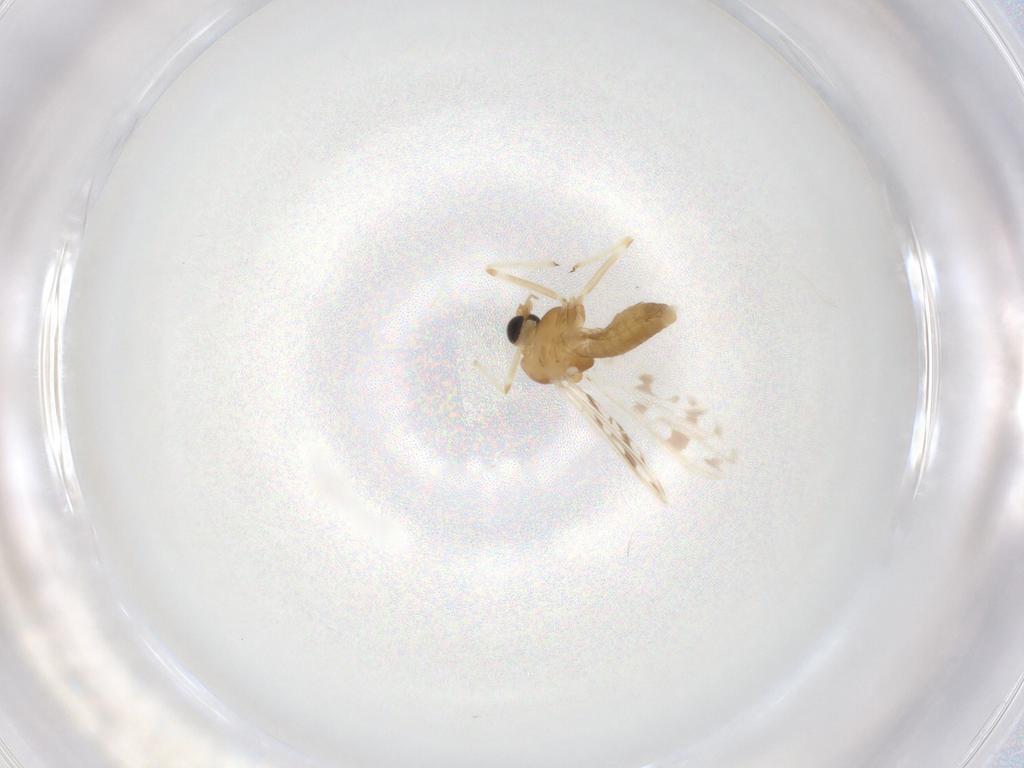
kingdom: Animalia
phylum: Arthropoda
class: Insecta
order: Diptera
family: Chironomidae
